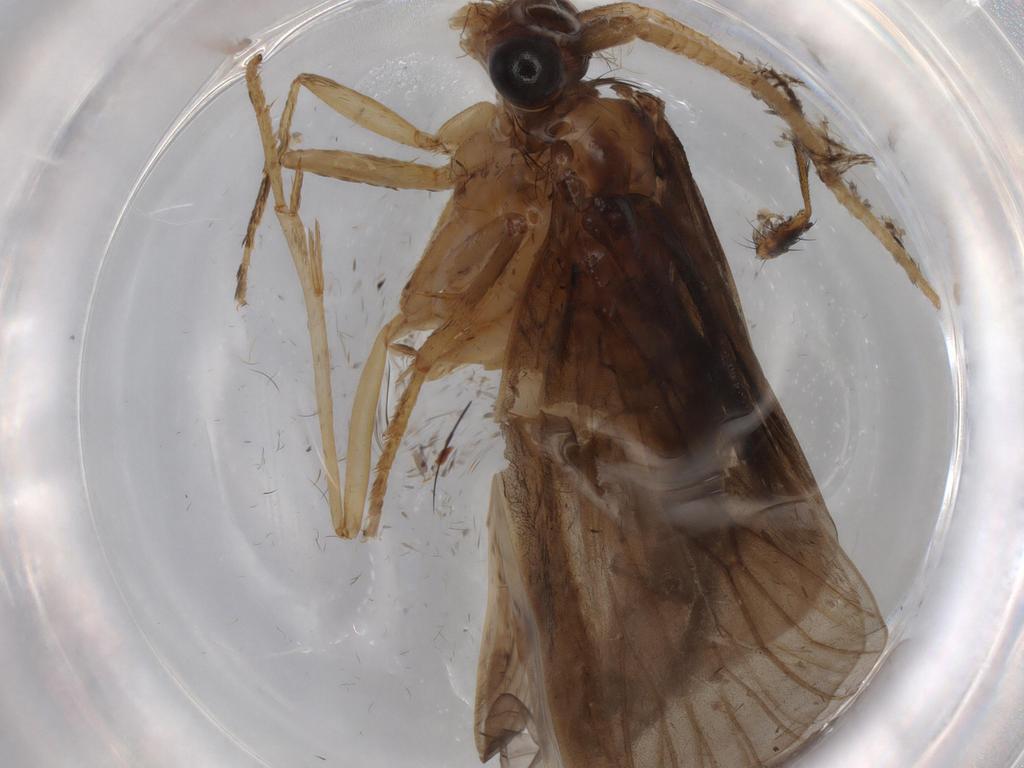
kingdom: Animalia
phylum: Arthropoda
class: Insecta
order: Trichoptera
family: Lepidostomatidae
